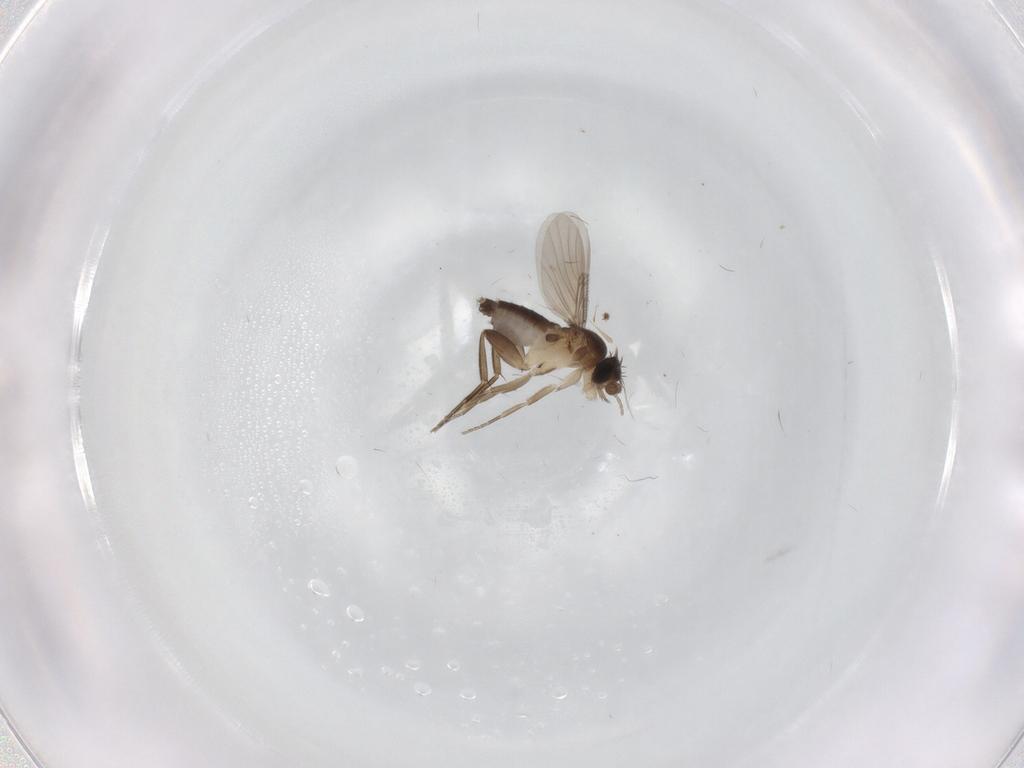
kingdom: Animalia
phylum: Arthropoda
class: Insecta
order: Diptera
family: Phoridae
